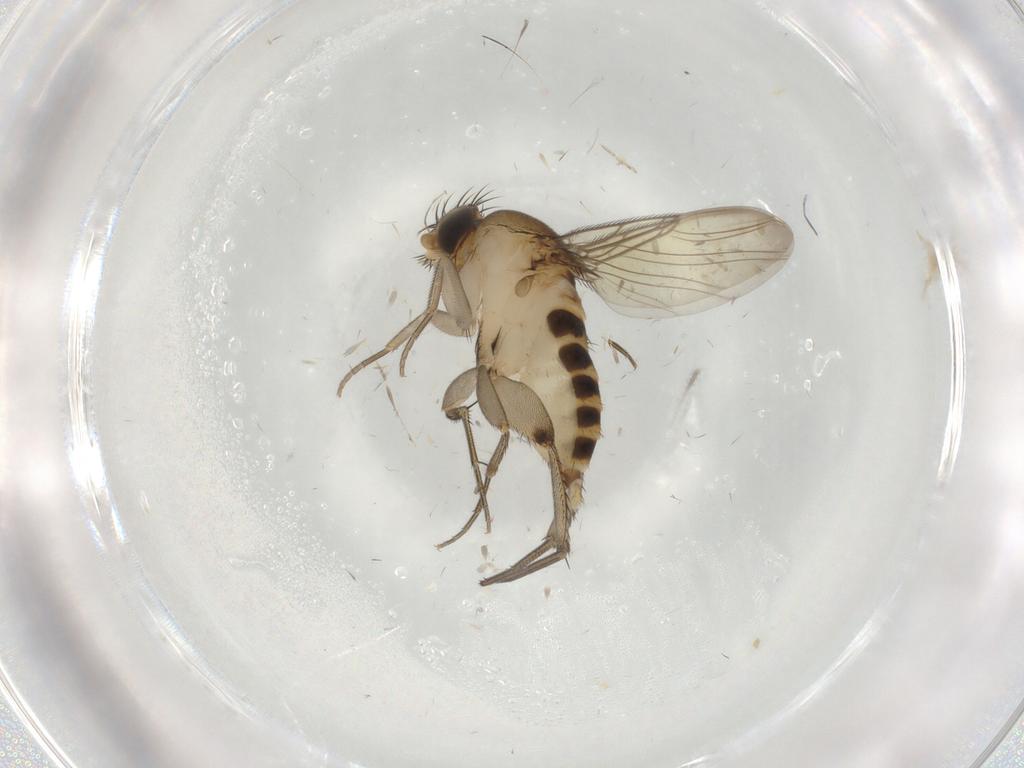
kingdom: Animalia
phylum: Arthropoda
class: Insecta
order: Diptera
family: Phoridae
